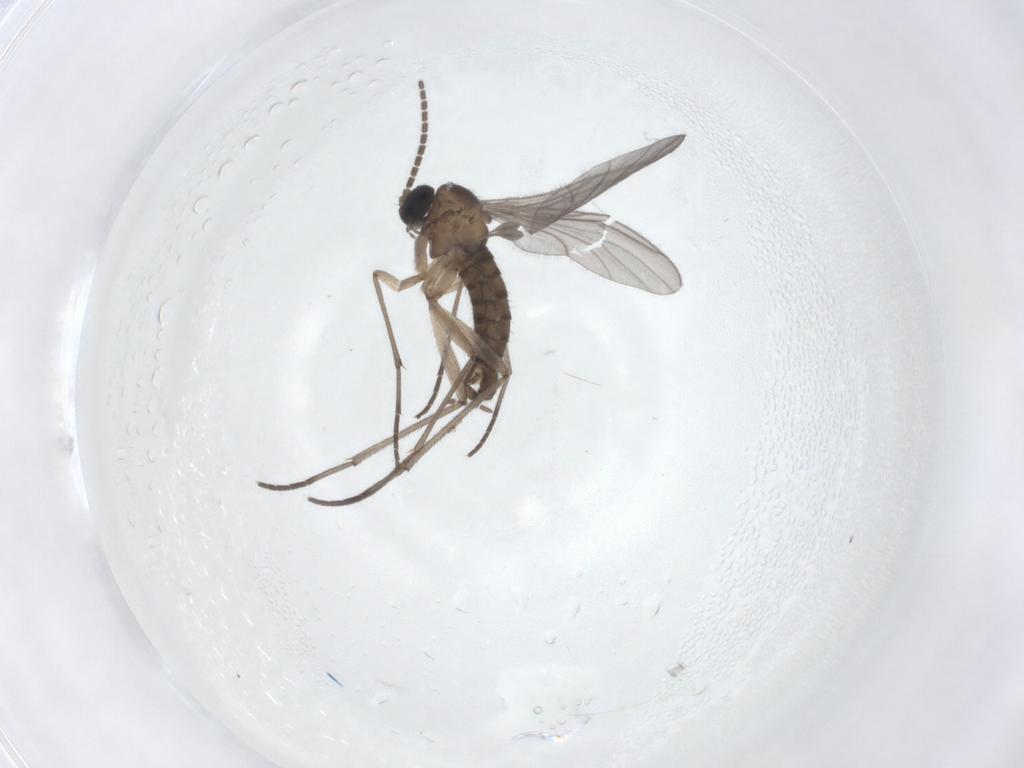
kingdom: Animalia
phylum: Arthropoda
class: Insecta
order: Diptera
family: Sciaridae
